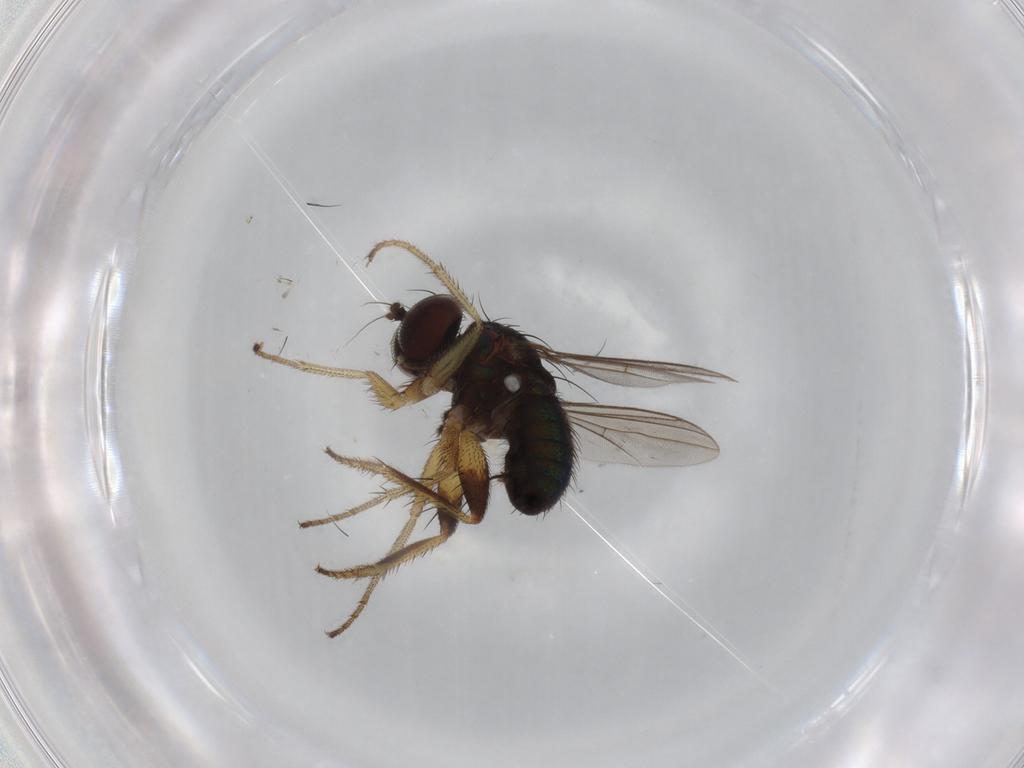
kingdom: Animalia
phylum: Arthropoda
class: Insecta
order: Diptera
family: Dolichopodidae
